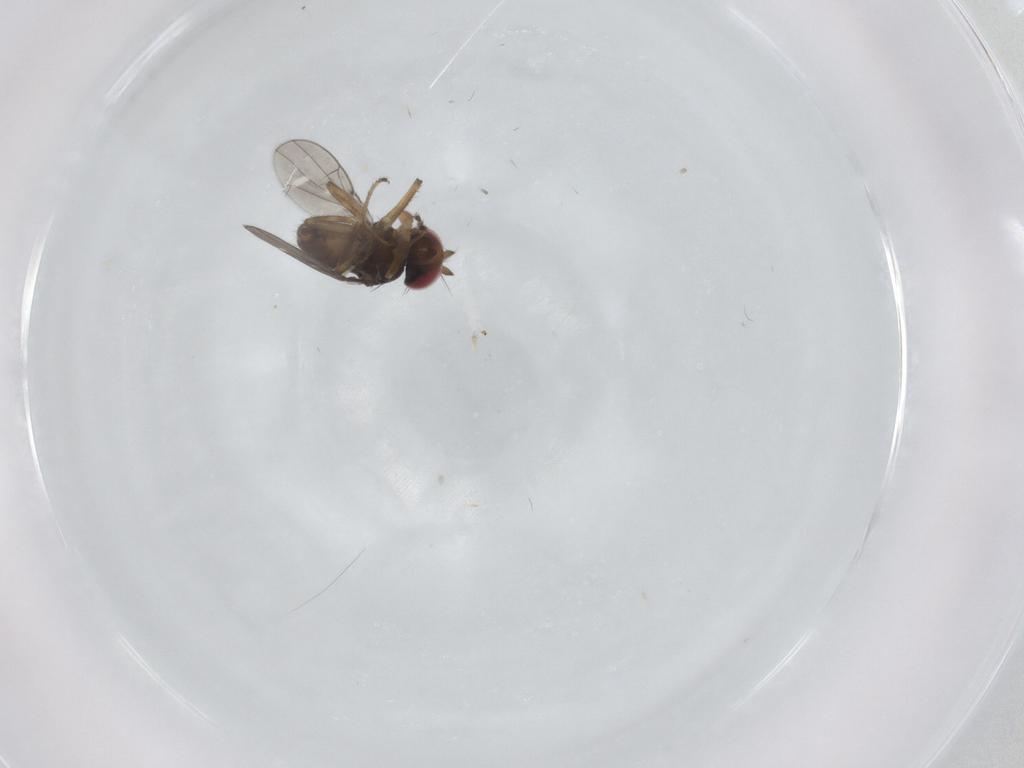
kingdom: Animalia
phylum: Arthropoda
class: Insecta
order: Diptera
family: Ephydridae
